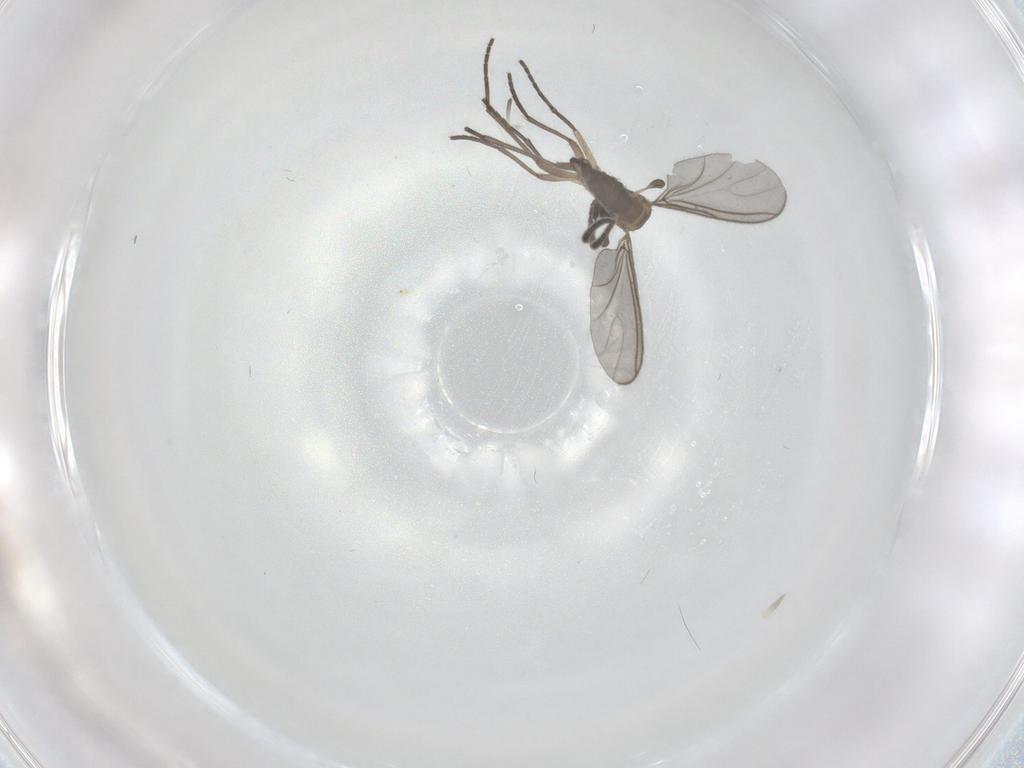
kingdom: Animalia
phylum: Arthropoda
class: Insecta
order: Diptera
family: Sciaridae
